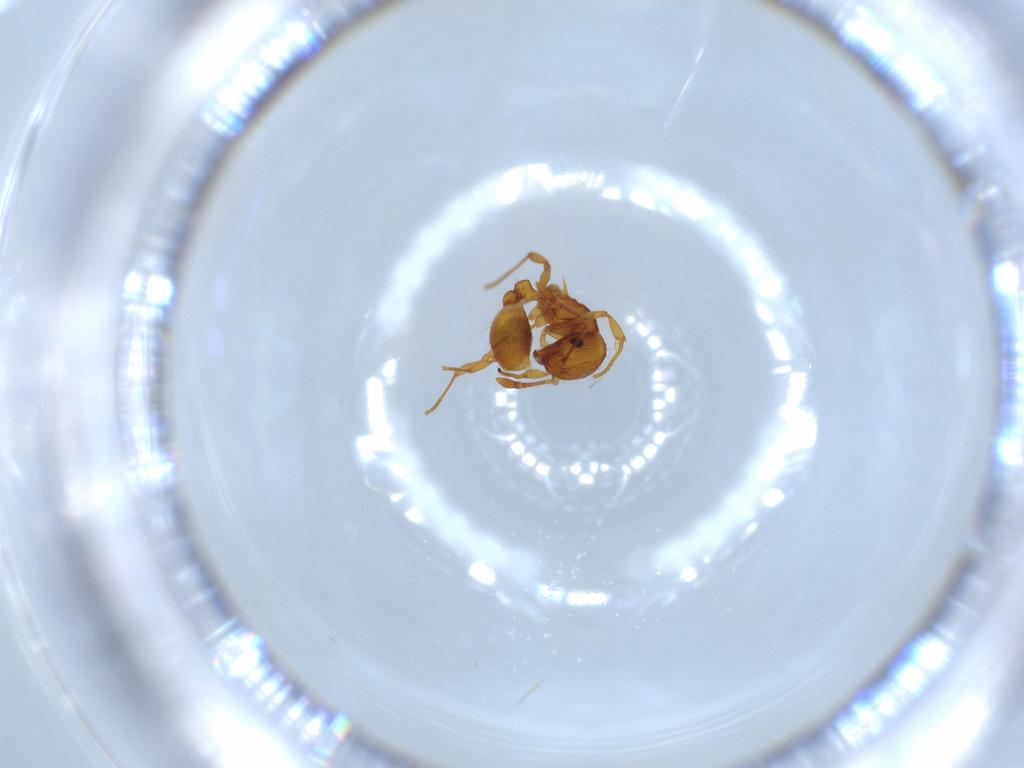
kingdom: Animalia
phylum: Arthropoda
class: Insecta
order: Hymenoptera
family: Formicidae
